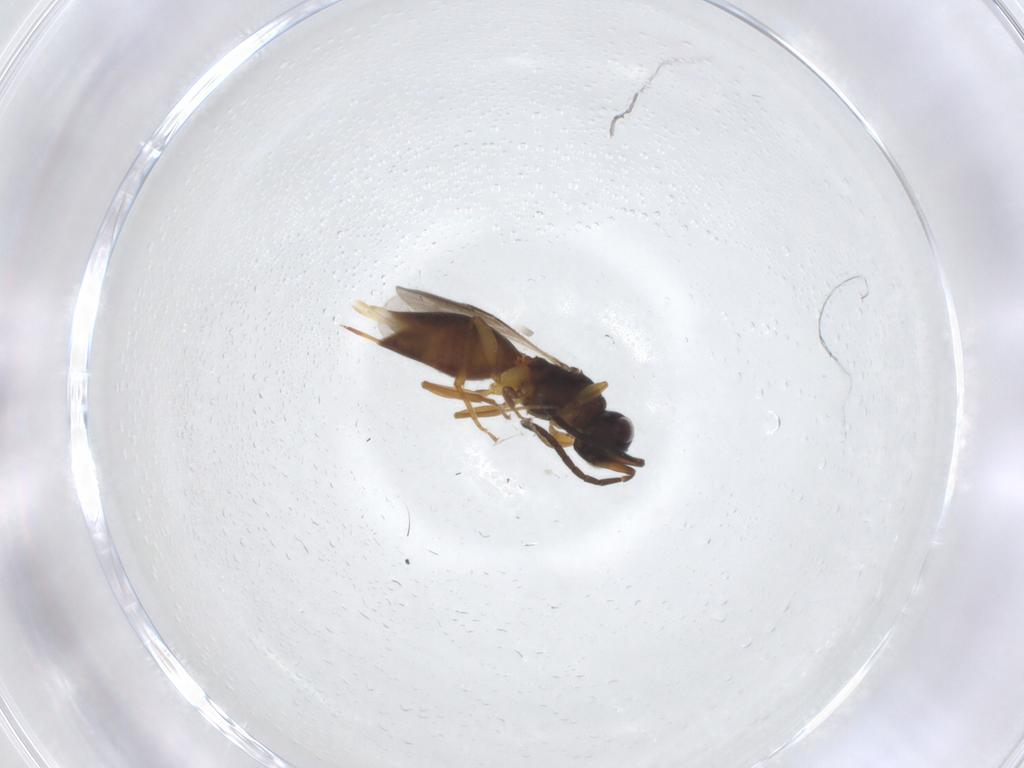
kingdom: Animalia
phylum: Arthropoda
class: Insecta
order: Hymenoptera
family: Megaspilidae
